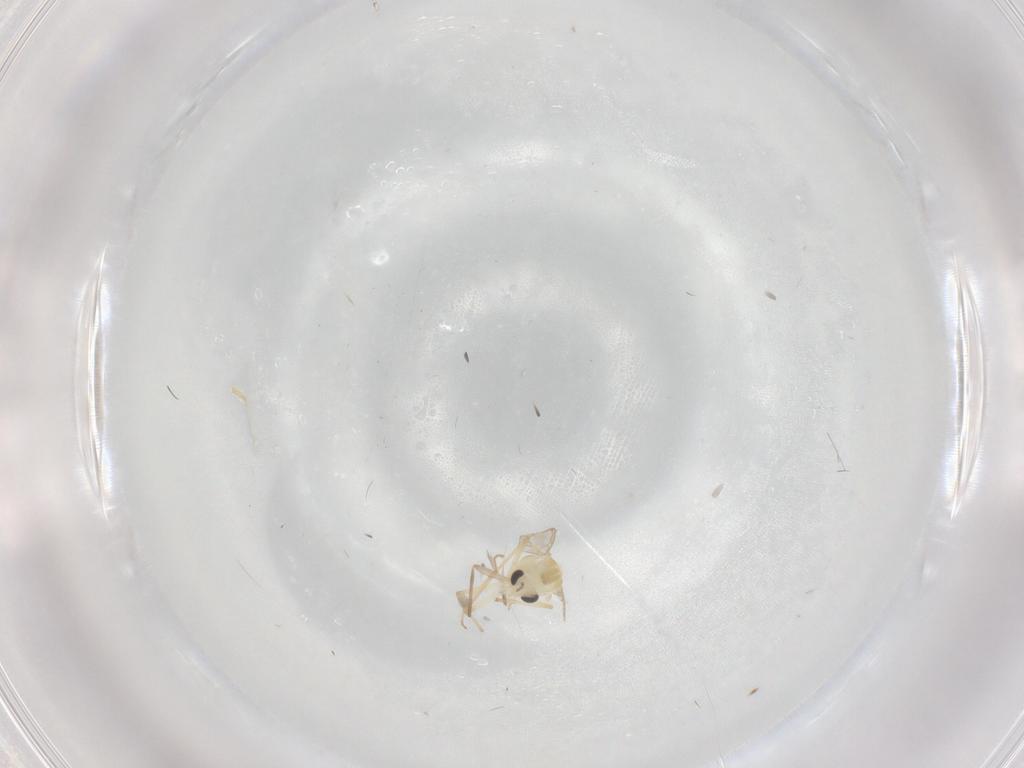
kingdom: Animalia
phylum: Arthropoda
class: Insecta
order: Diptera
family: Chironomidae
